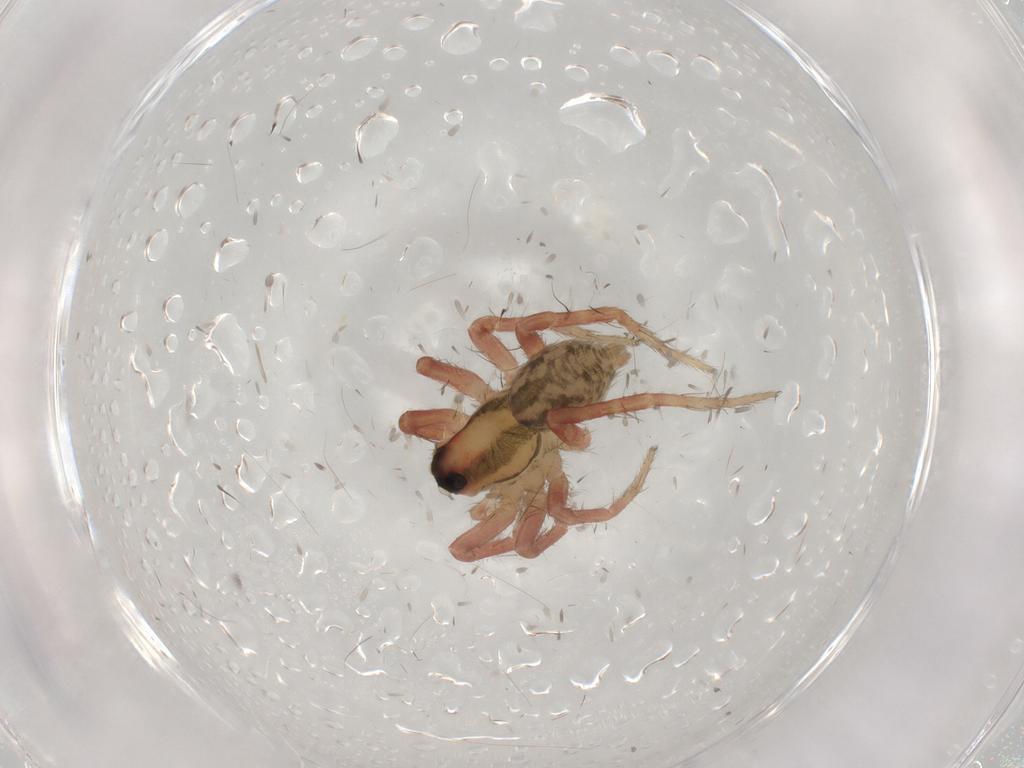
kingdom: Animalia
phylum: Arthropoda
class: Arachnida
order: Araneae
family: Lycosidae
